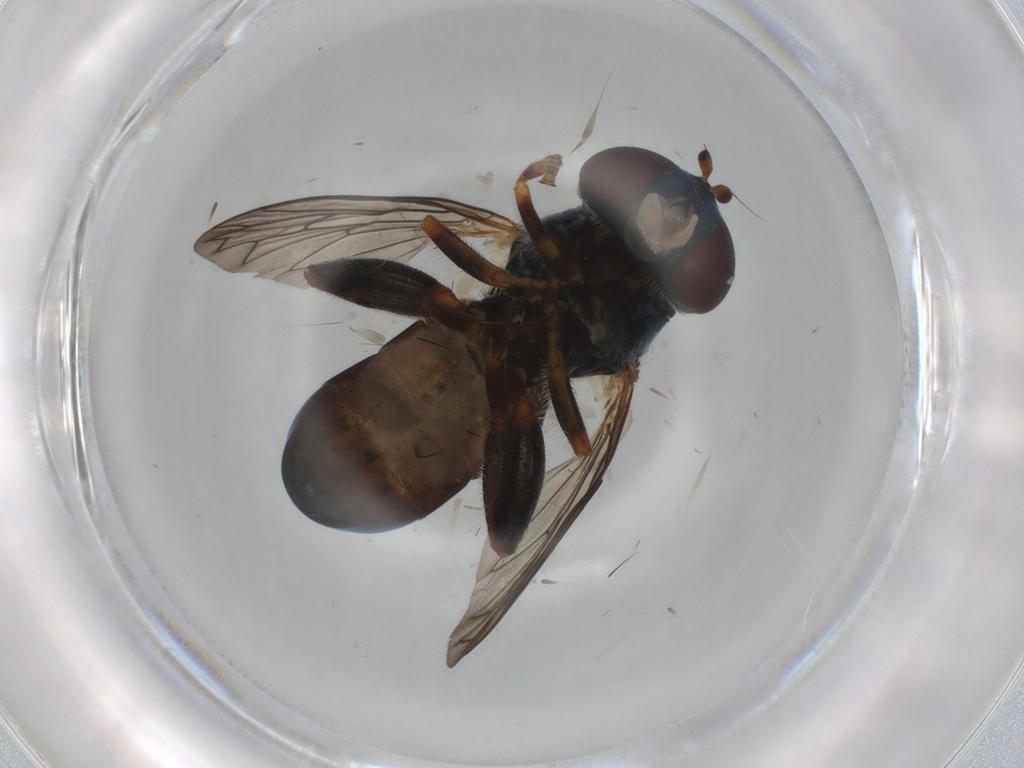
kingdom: Animalia
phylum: Arthropoda
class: Insecta
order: Diptera
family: Syrphidae
